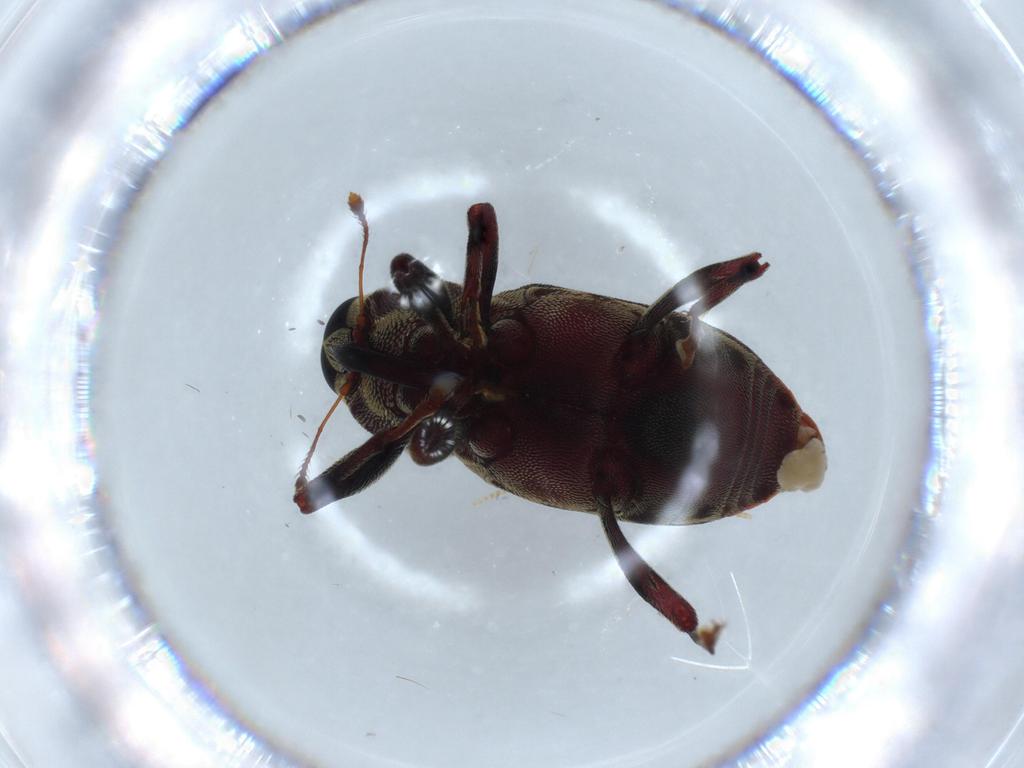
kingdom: Animalia
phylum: Arthropoda
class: Insecta
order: Coleoptera
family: Curculionidae
